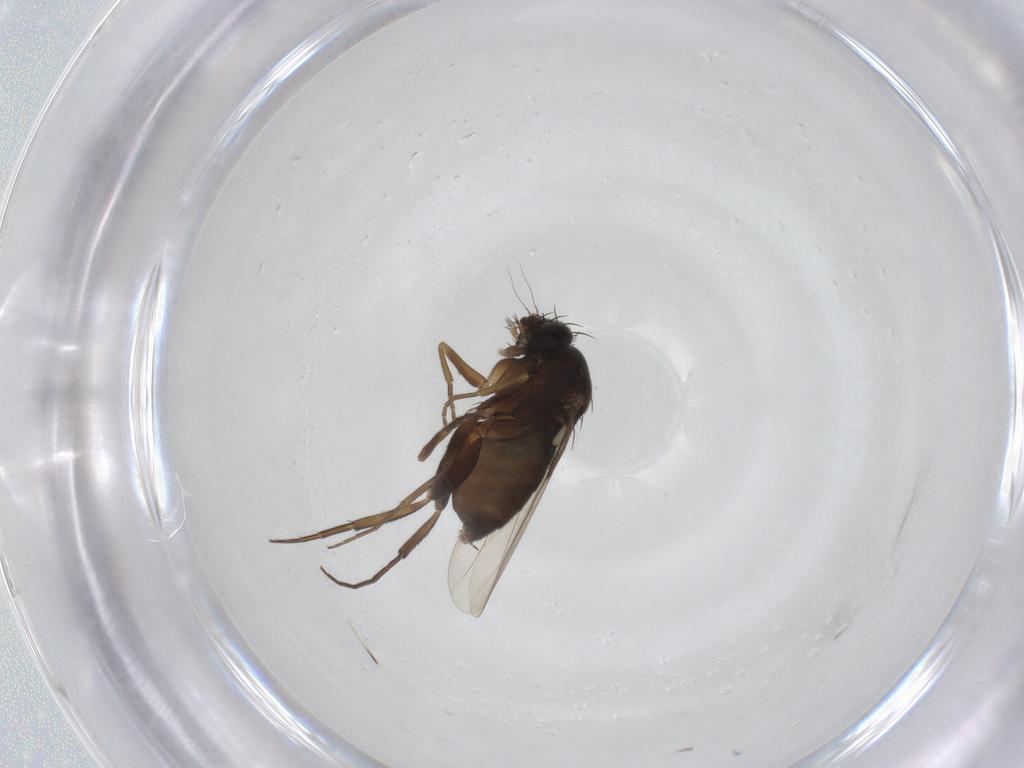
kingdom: Animalia
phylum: Arthropoda
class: Insecta
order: Diptera
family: Phoridae
